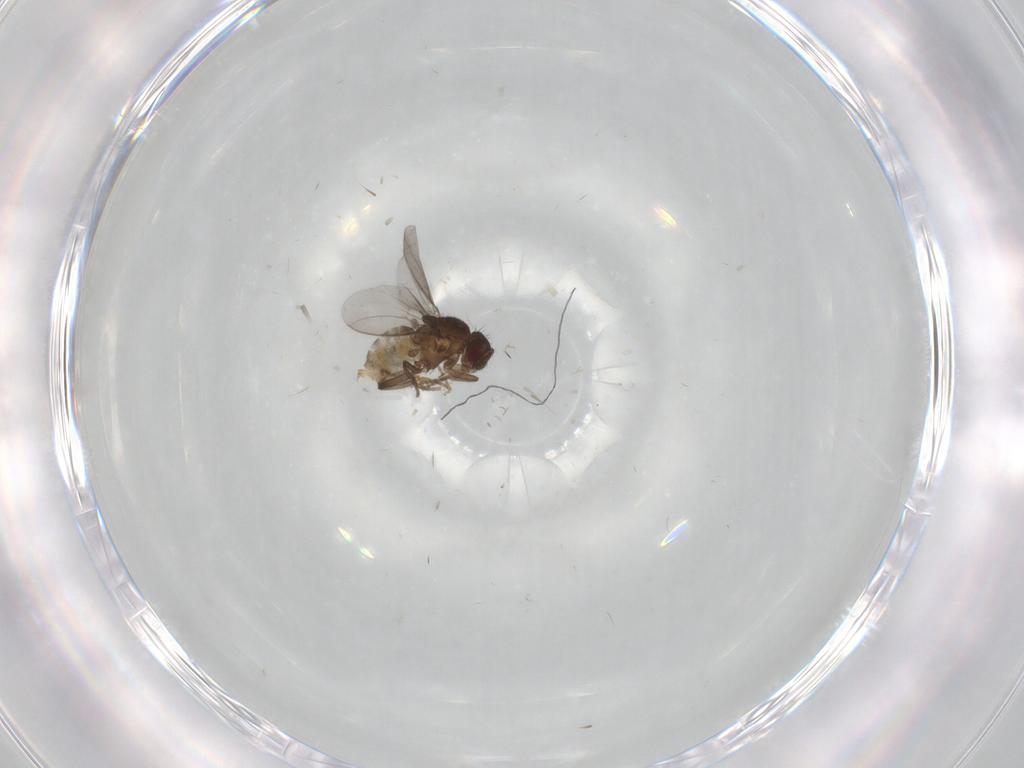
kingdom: Animalia
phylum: Arthropoda
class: Insecta
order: Diptera
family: Sphaeroceridae
